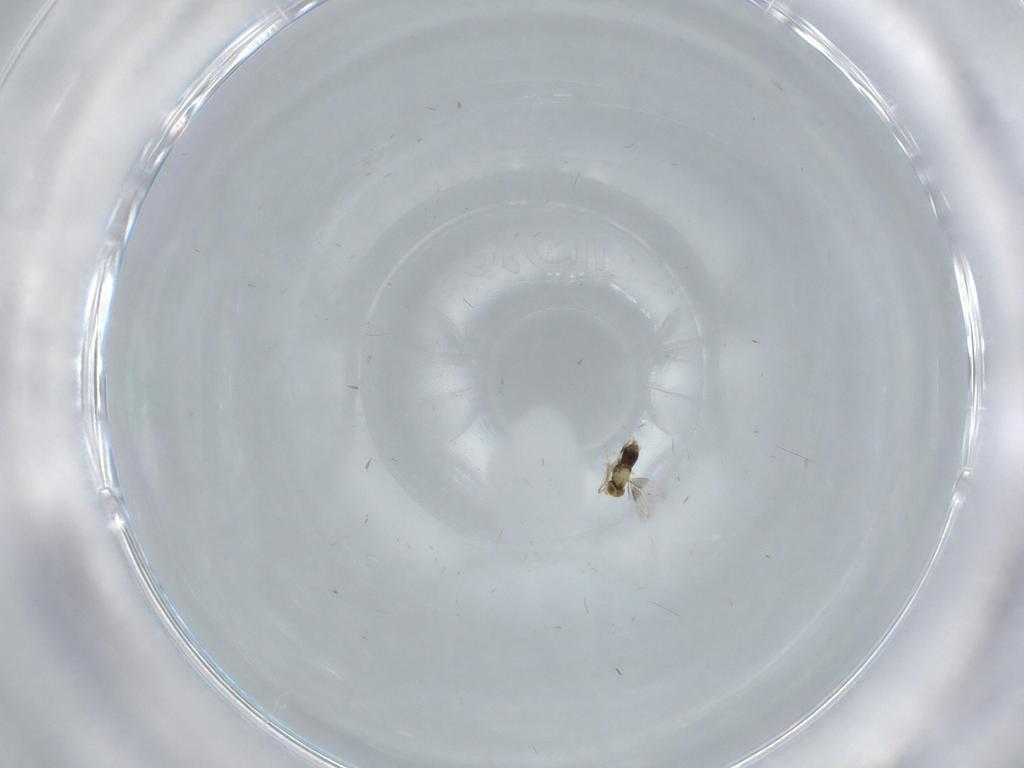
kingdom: Animalia
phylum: Arthropoda
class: Insecta
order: Hymenoptera
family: Aphelinidae
